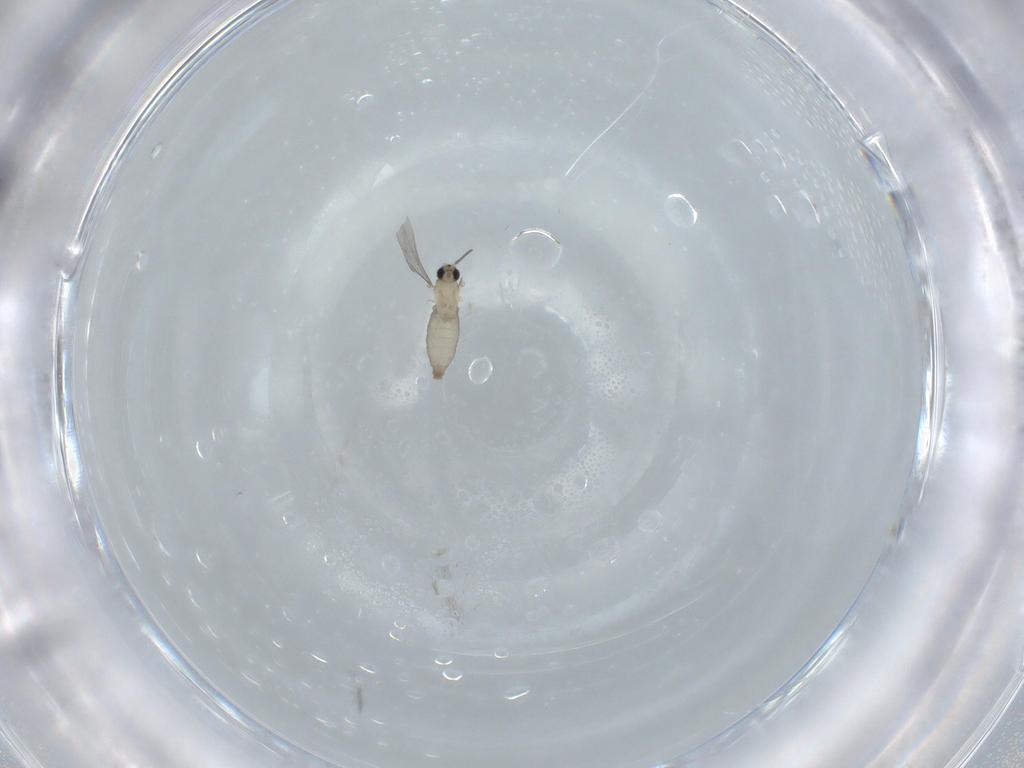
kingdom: Animalia
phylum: Arthropoda
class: Insecta
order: Diptera
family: Cecidomyiidae
